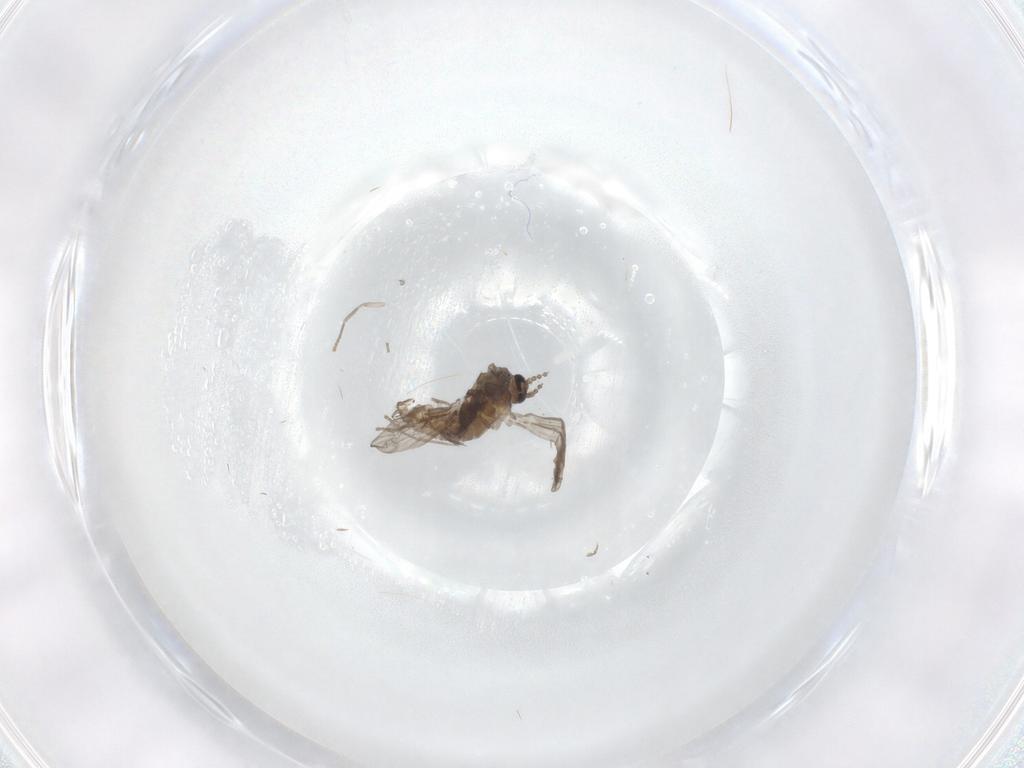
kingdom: Animalia
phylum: Arthropoda
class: Insecta
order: Diptera
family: Psychodidae
